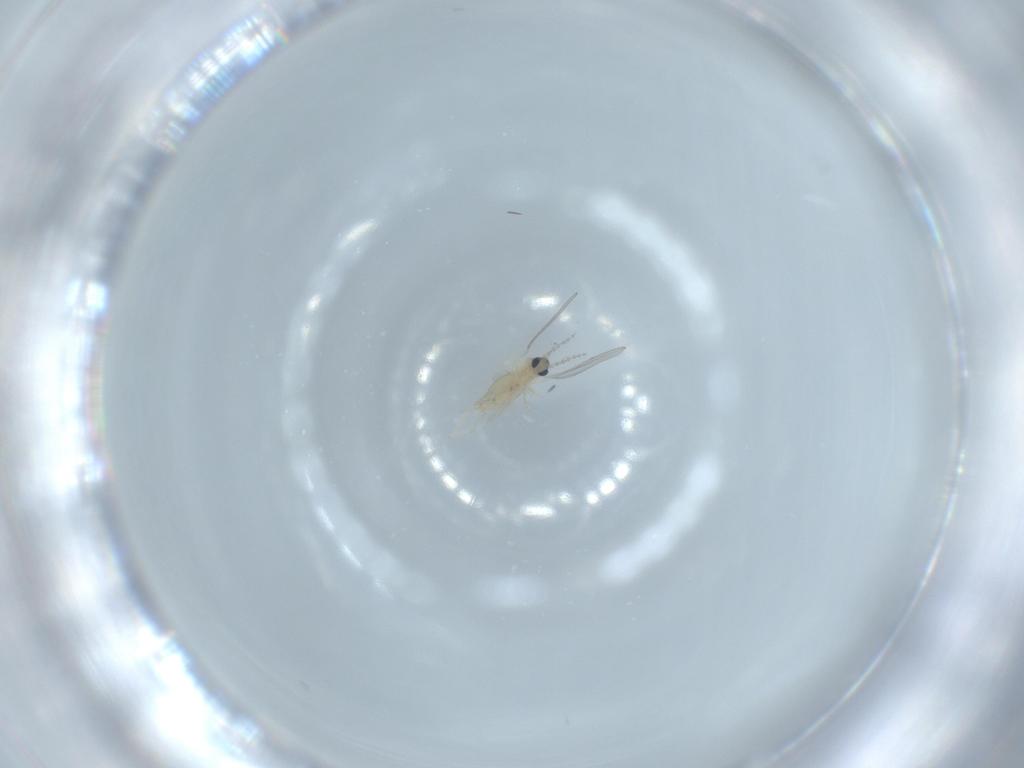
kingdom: Animalia
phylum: Arthropoda
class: Insecta
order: Diptera
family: Cecidomyiidae
